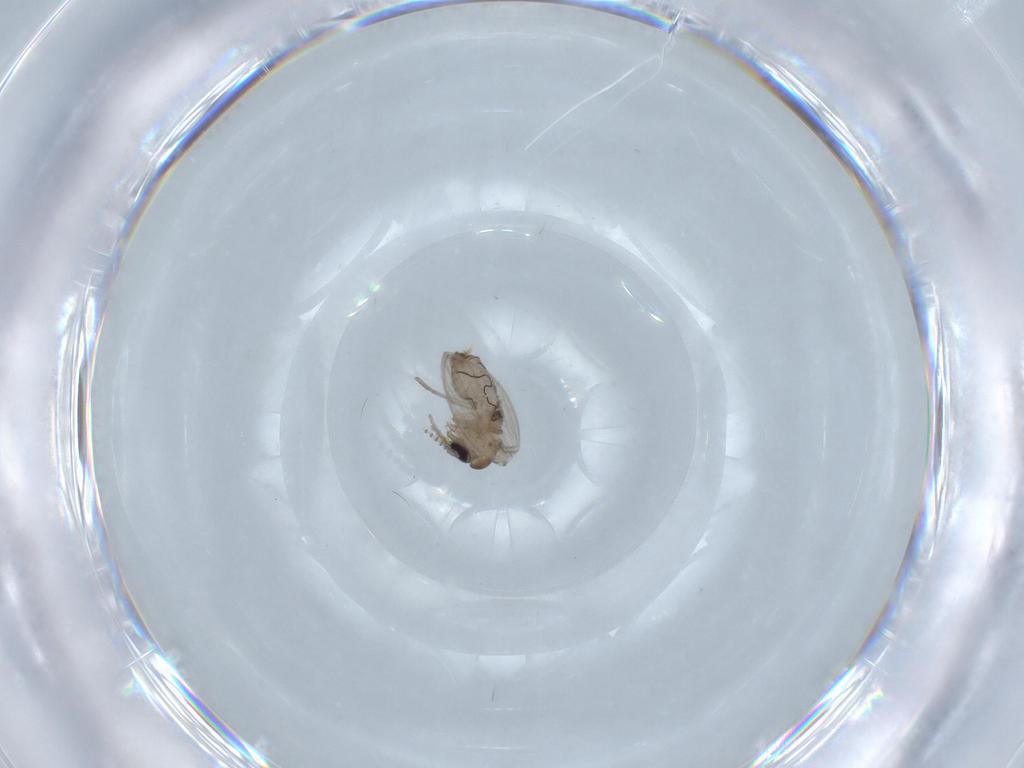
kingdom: Animalia
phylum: Arthropoda
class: Insecta
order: Diptera
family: Psychodidae
